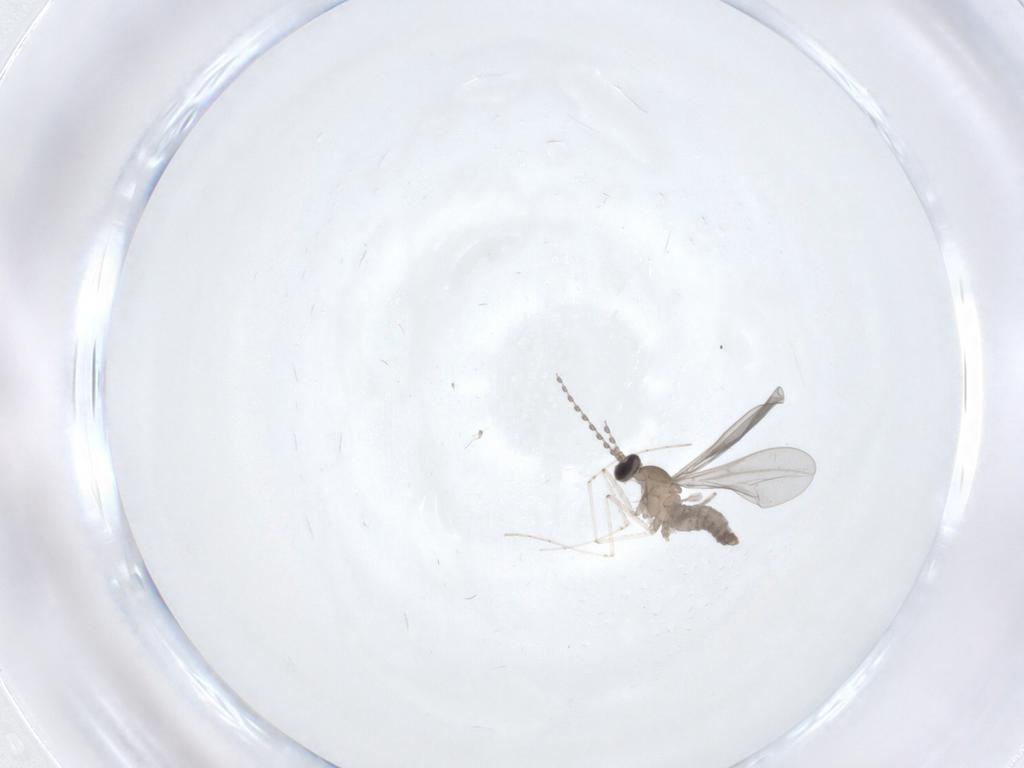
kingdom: Animalia
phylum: Arthropoda
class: Insecta
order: Diptera
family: Cecidomyiidae
